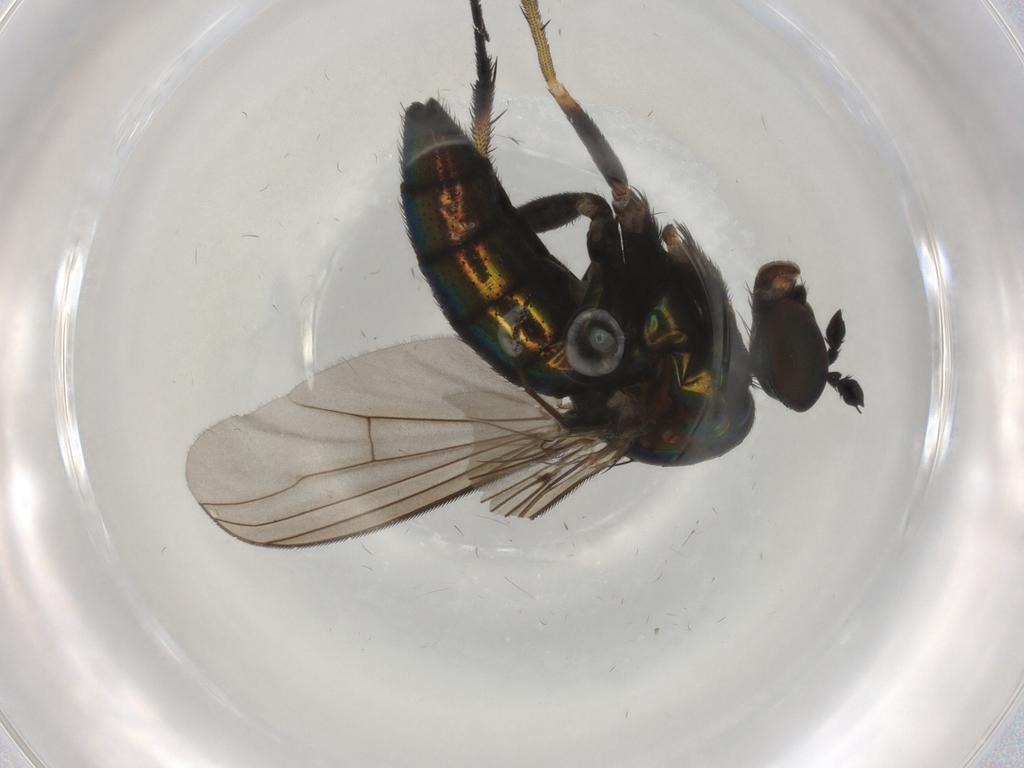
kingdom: Animalia
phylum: Arthropoda
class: Insecta
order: Diptera
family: Dolichopodidae
